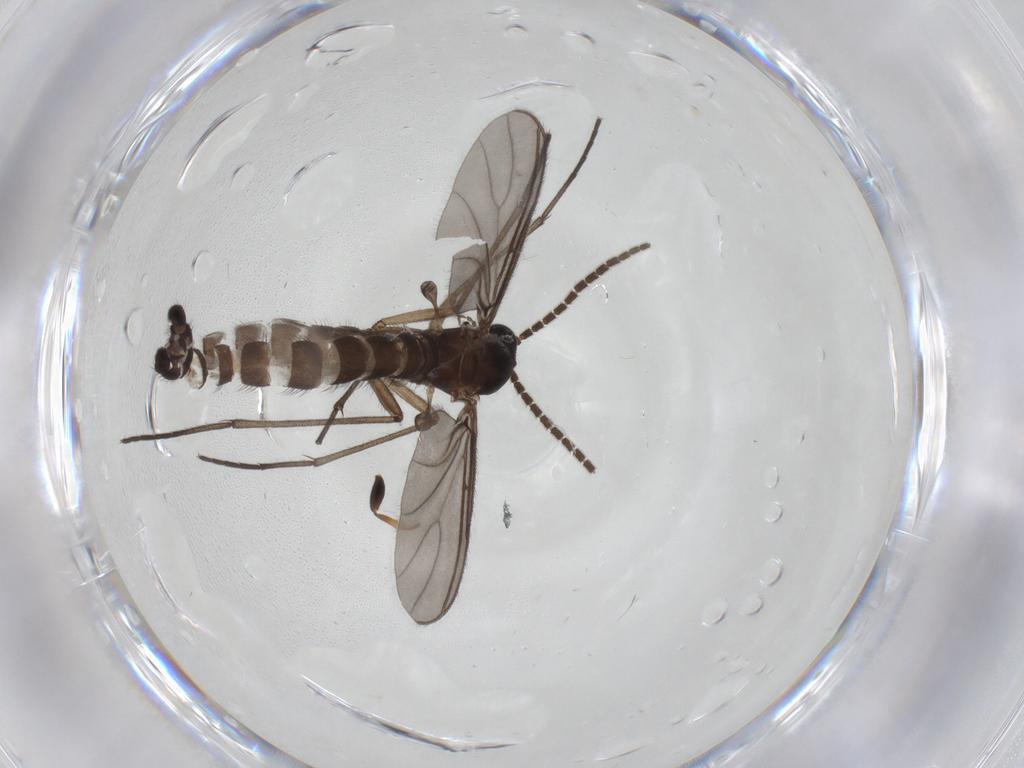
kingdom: Animalia
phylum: Arthropoda
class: Insecta
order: Diptera
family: Sciaridae
